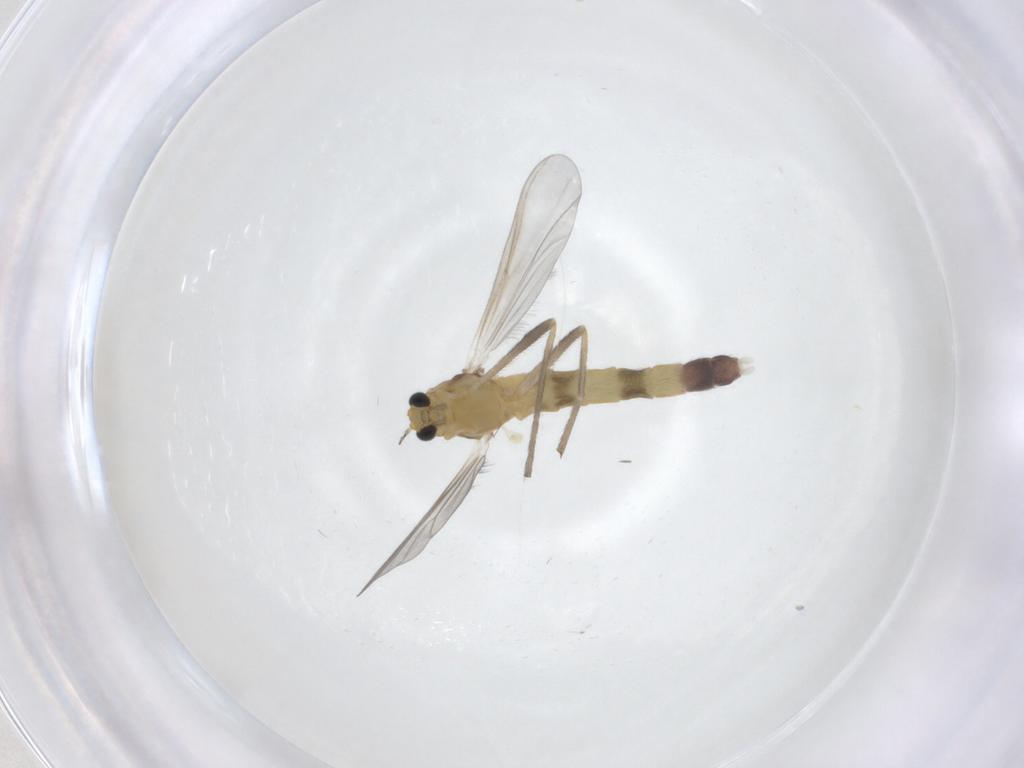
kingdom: Animalia
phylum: Arthropoda
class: Insecta
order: Diptera
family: Chironomidae
